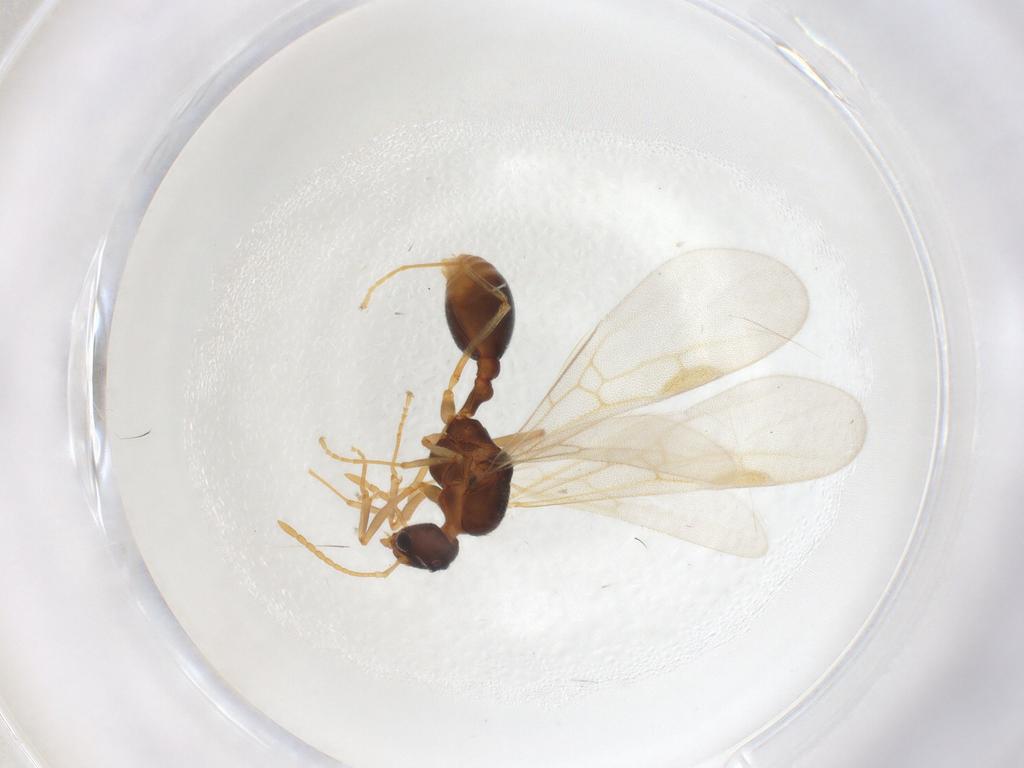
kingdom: Animalia
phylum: Arthropoda
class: Insecta
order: Hymenoptera
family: Formicidae
